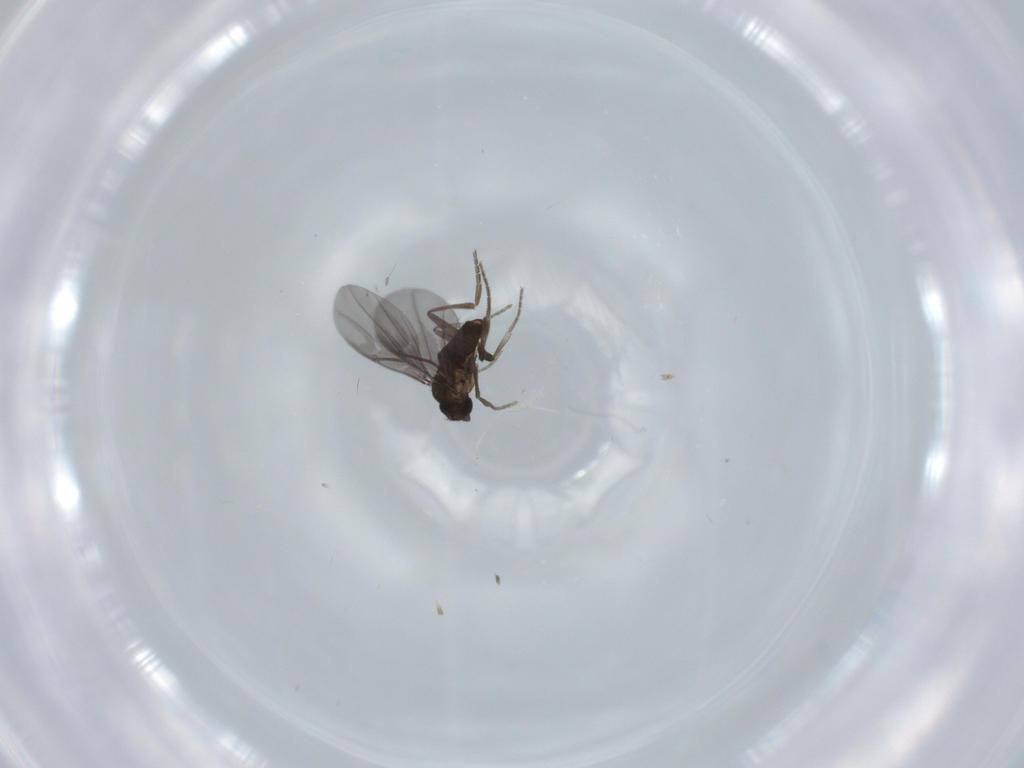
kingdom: Animalia
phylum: Arthropoda
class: Insecta
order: Diptera
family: Phoridae
